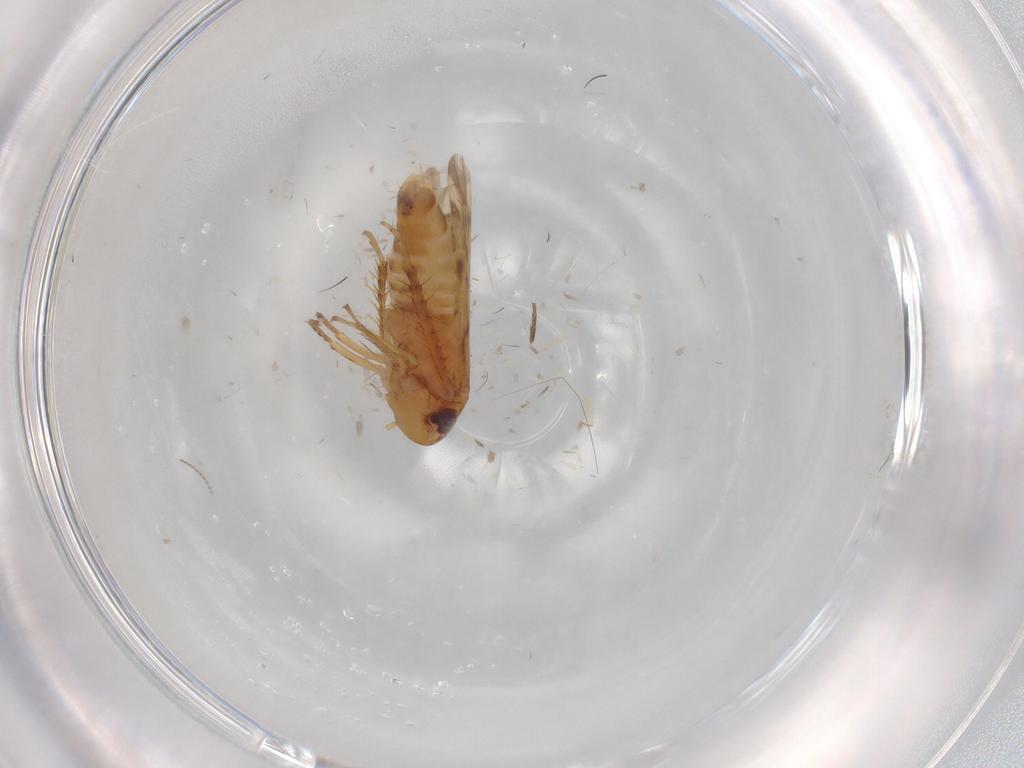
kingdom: Animalia
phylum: Arthropoda
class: Insecta
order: Hemiptera
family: Cicadellidae
